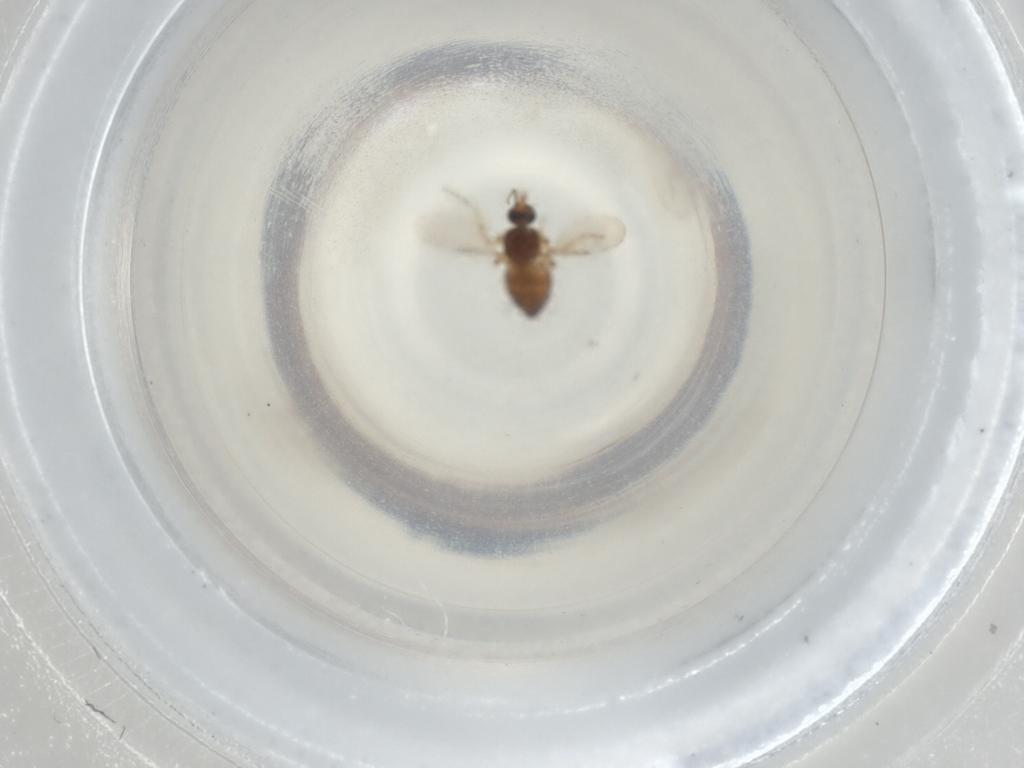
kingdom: Animalia
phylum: Arthropoda
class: Insecta
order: Diptera
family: Ceratopogonidae
